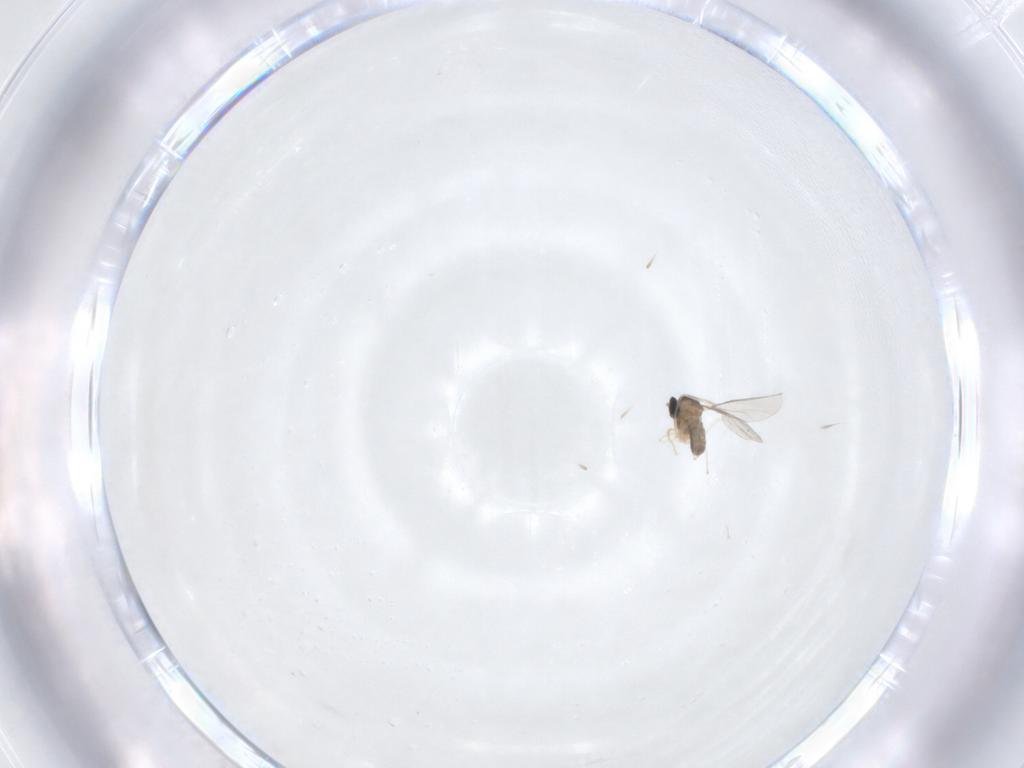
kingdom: Animalia
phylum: Arthropoda
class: Insecta
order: Diptera
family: Cecidomyiidae
